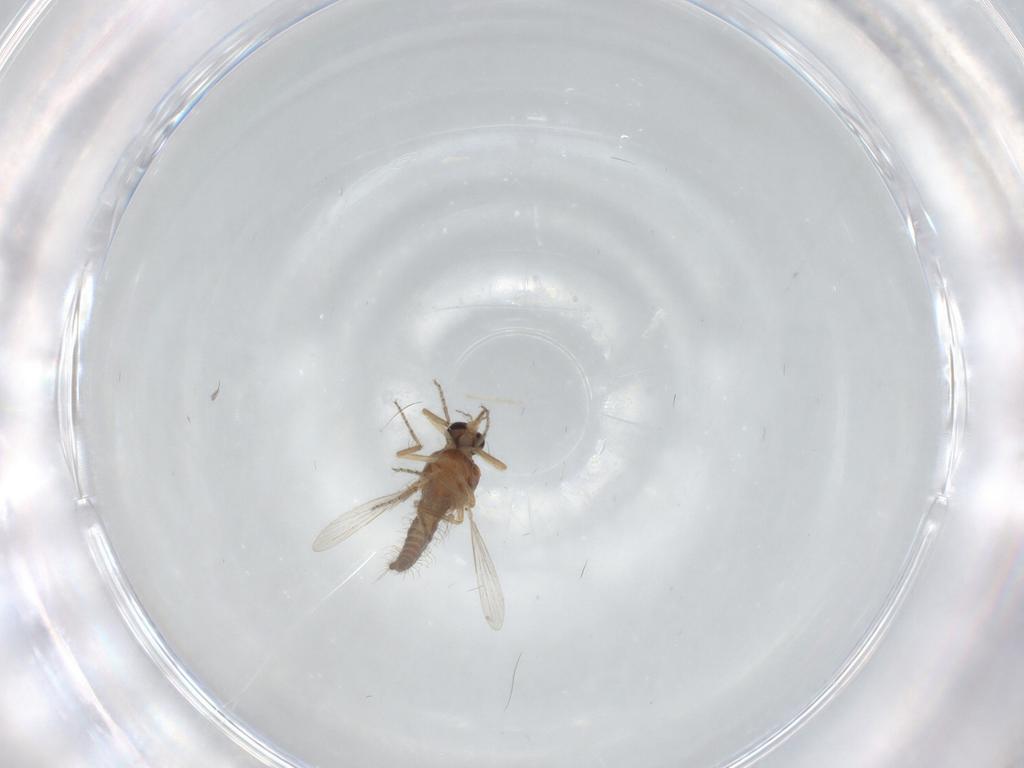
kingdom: Animalia
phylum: Arthropoda
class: Insecta
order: Diptera
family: Ceratopogonidae
